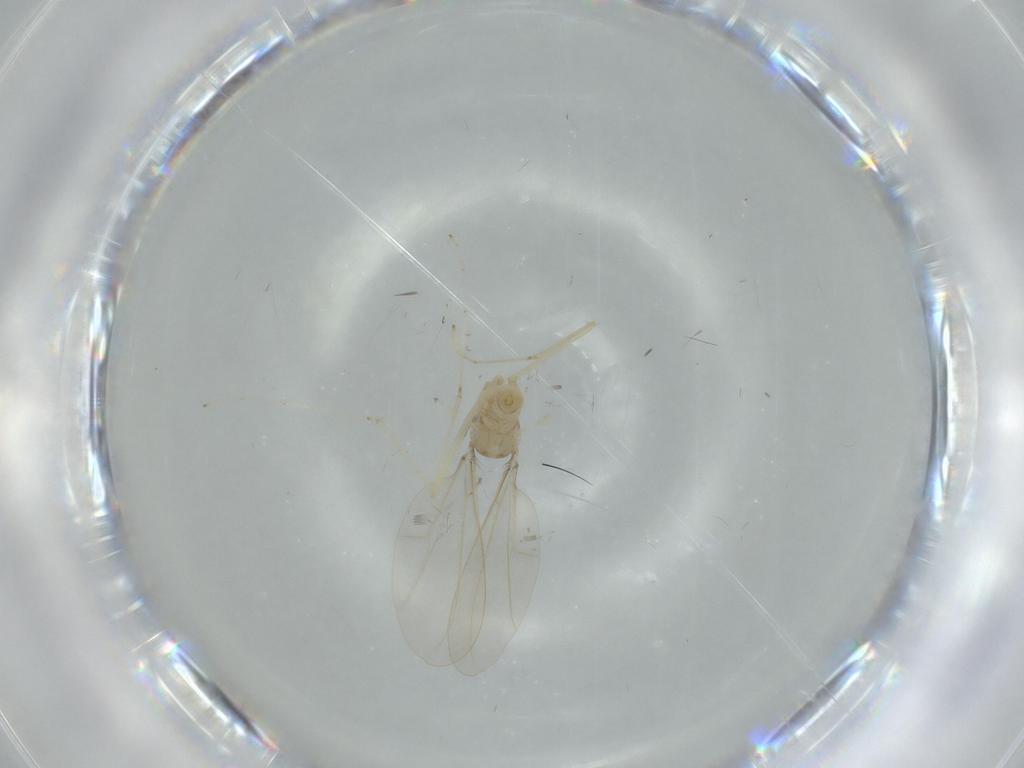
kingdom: Animalia
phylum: Arthropoda
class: Insecta
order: Diptera
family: Cecidomyiidae
